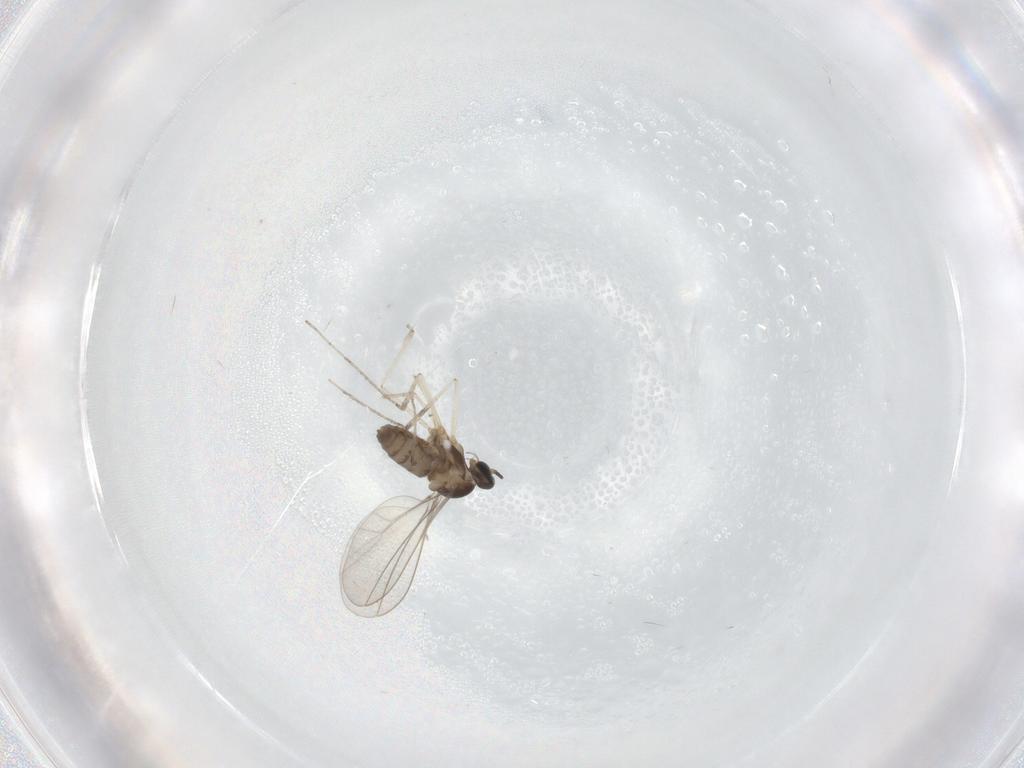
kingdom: Animalia
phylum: Arthropoda
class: Insecta
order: Diptera
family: Cecidomyiidae
